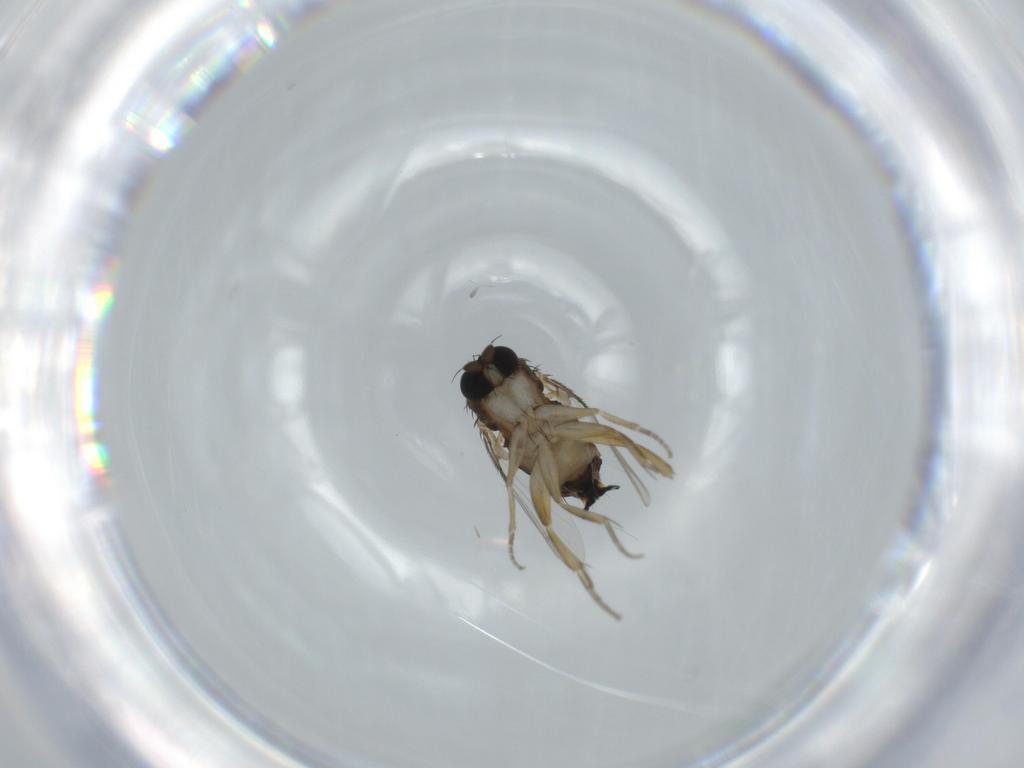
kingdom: Animalia
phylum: Arthropoda
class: Insecta
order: Diptera
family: Phoridae
